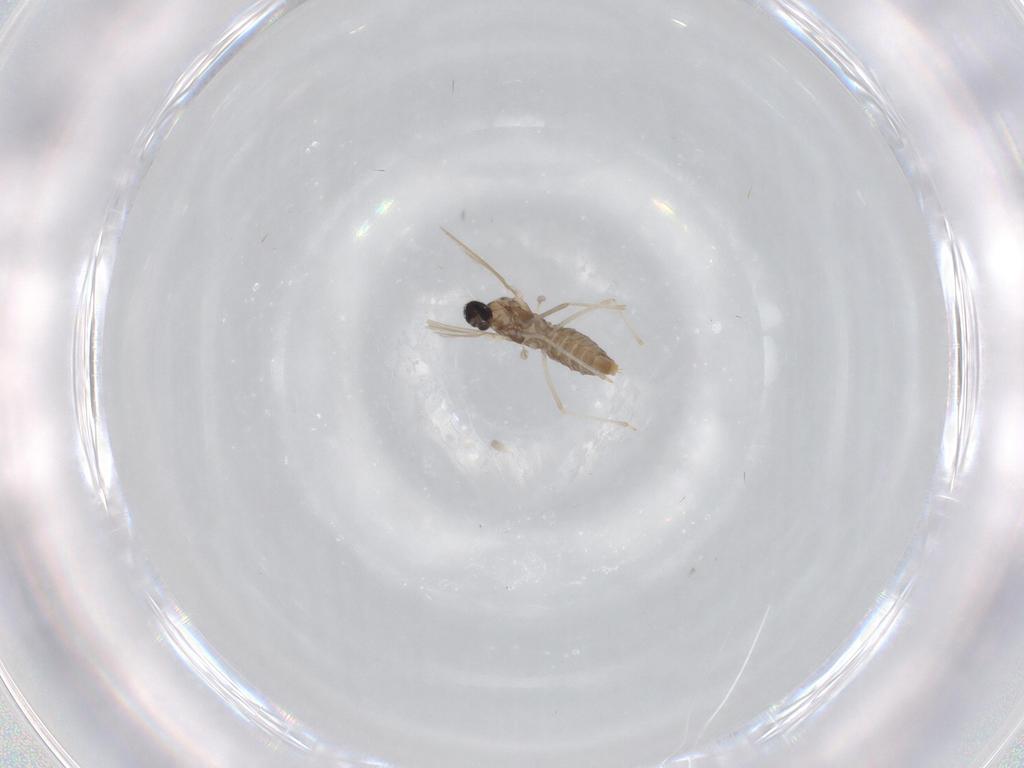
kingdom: Animalia
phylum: Arthropoda
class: Insecta
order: Diptera
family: Cecidomyiidae
